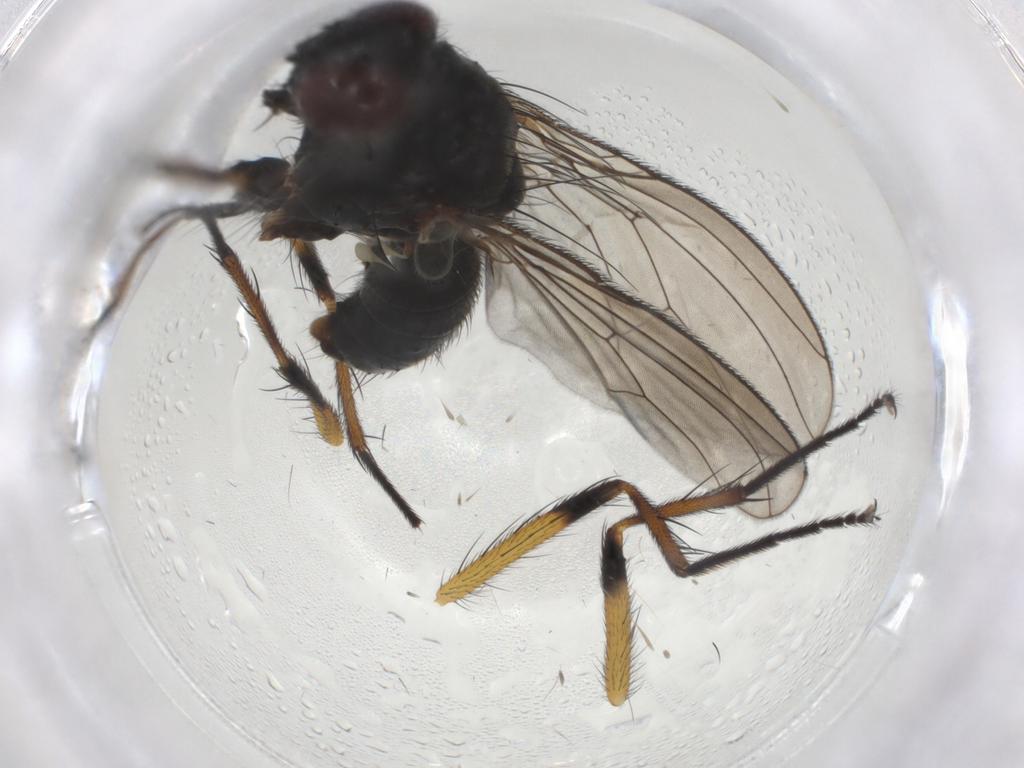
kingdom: Animalia
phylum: Arthropoda
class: Insecta
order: Diptera
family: Muscidae
